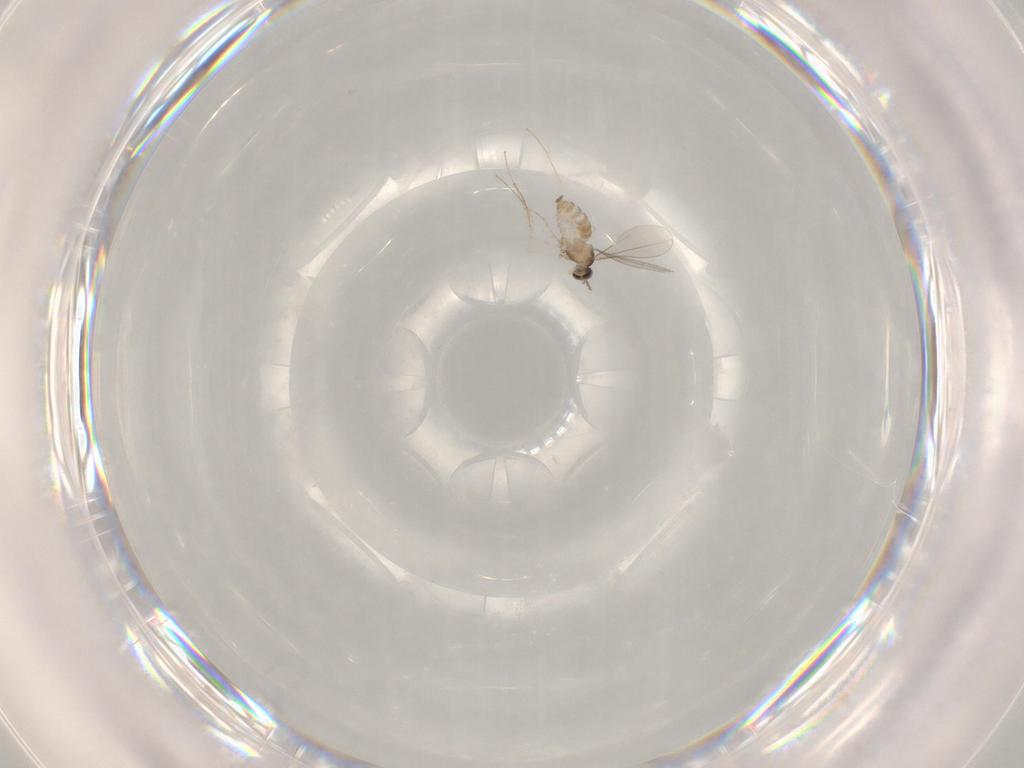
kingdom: Animalia
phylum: Arthropoda
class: Insecta
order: Diptera
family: Cecidomyiidae
